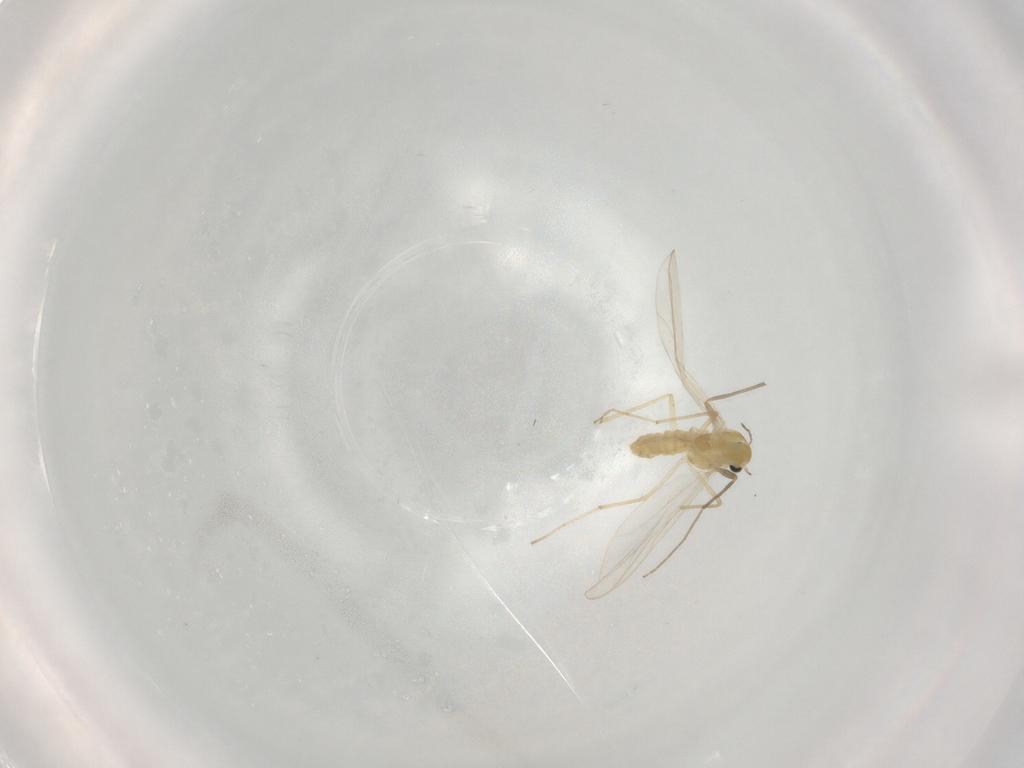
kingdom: Animalia
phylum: Arthropoda
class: Insecta
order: Diptera
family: Chironomidae
